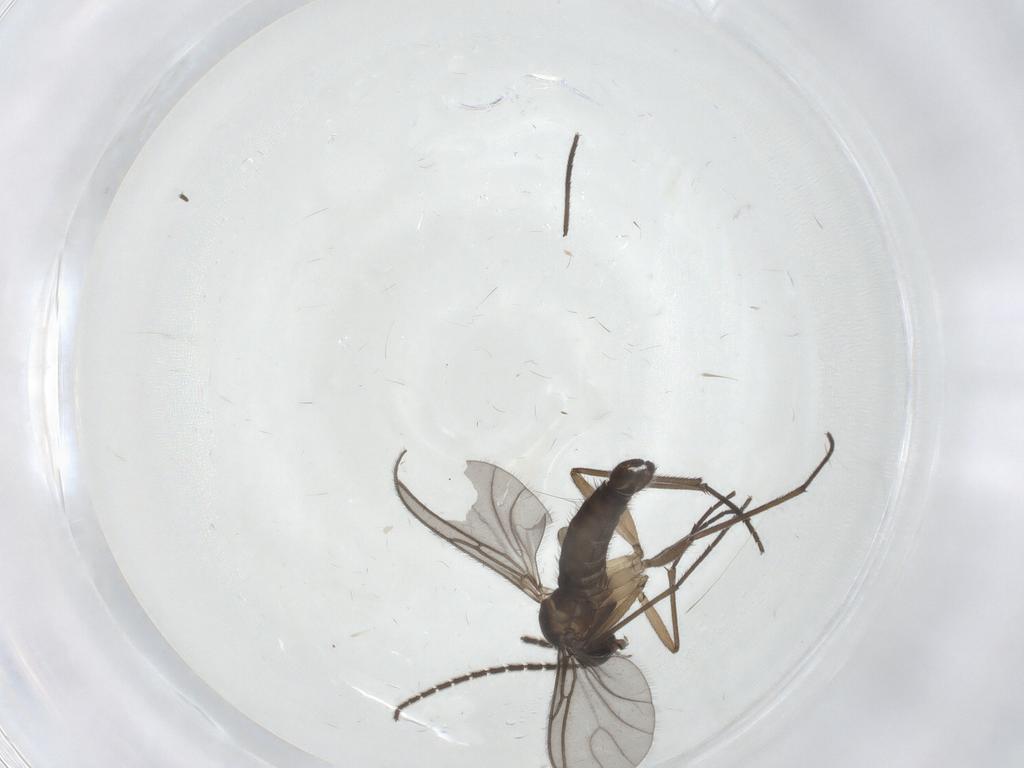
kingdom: Animalia
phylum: Arthropoda
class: Insecta
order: Diptera
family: Sciaridae
